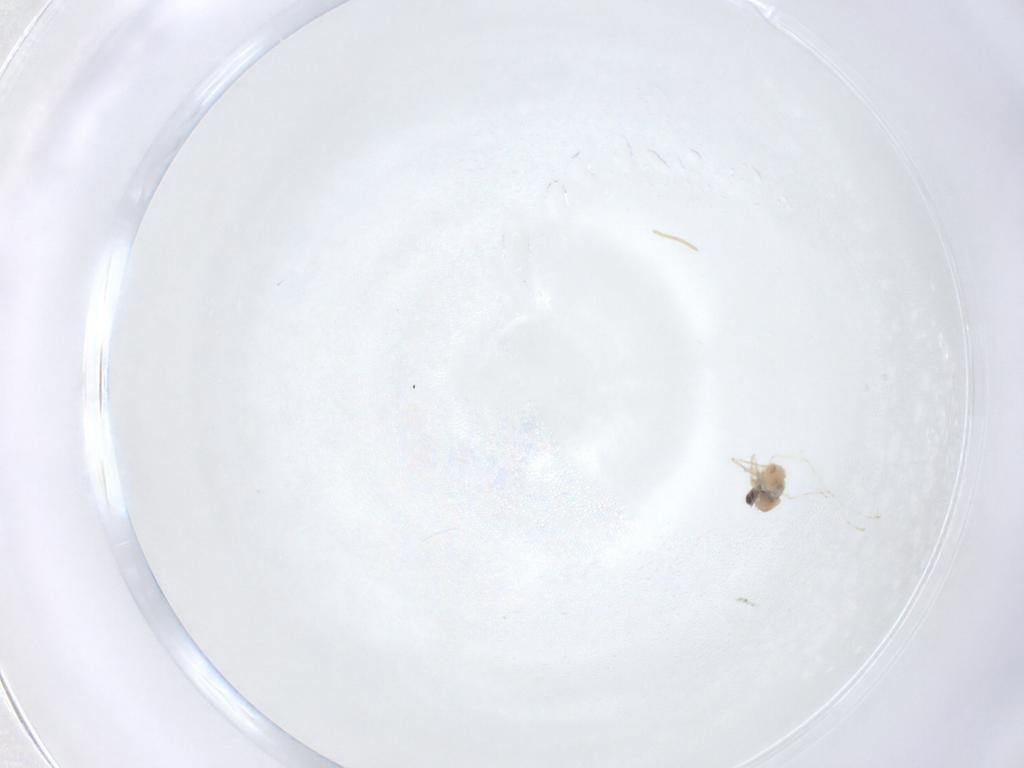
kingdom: Animalia
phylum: Arthropoda
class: Insecta
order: Diptera
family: Cecidomyiidae
